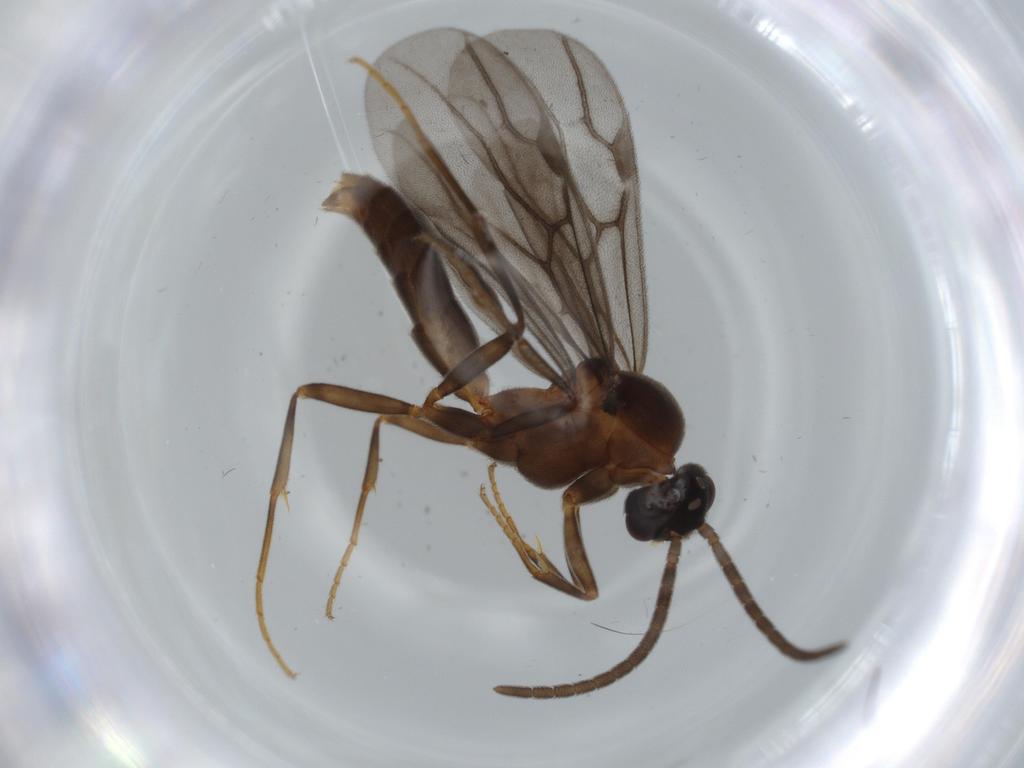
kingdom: Animalia
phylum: Arthropoda
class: Insecta
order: Hymenoptera
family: Formicidae
